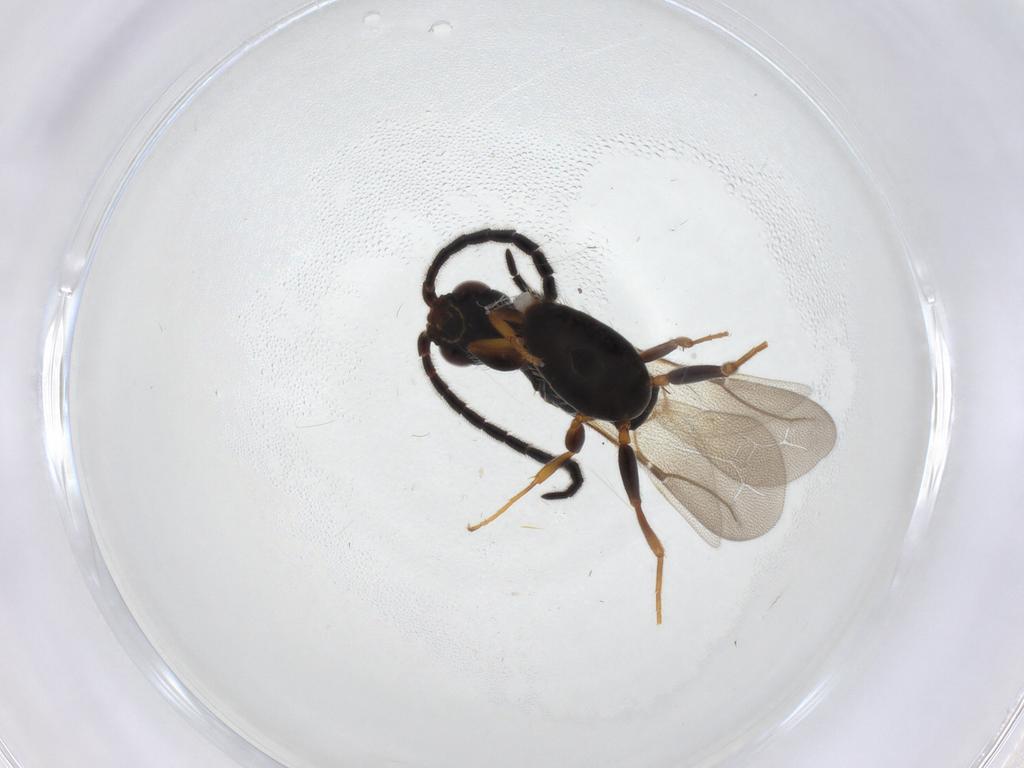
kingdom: Animalia
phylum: Arthropoda
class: Insecta
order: Hymenoptera
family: Bethylidae
